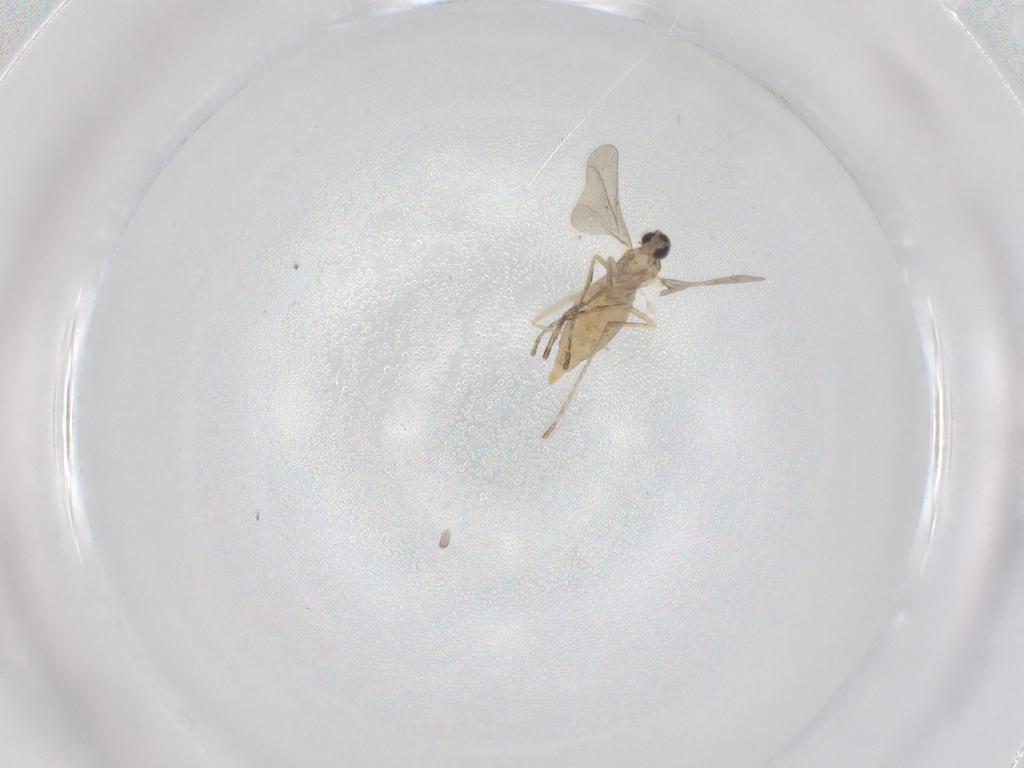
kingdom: Animalia
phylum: Arthropoda
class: Insecta
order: Diptera
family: Cecidomyiidae
